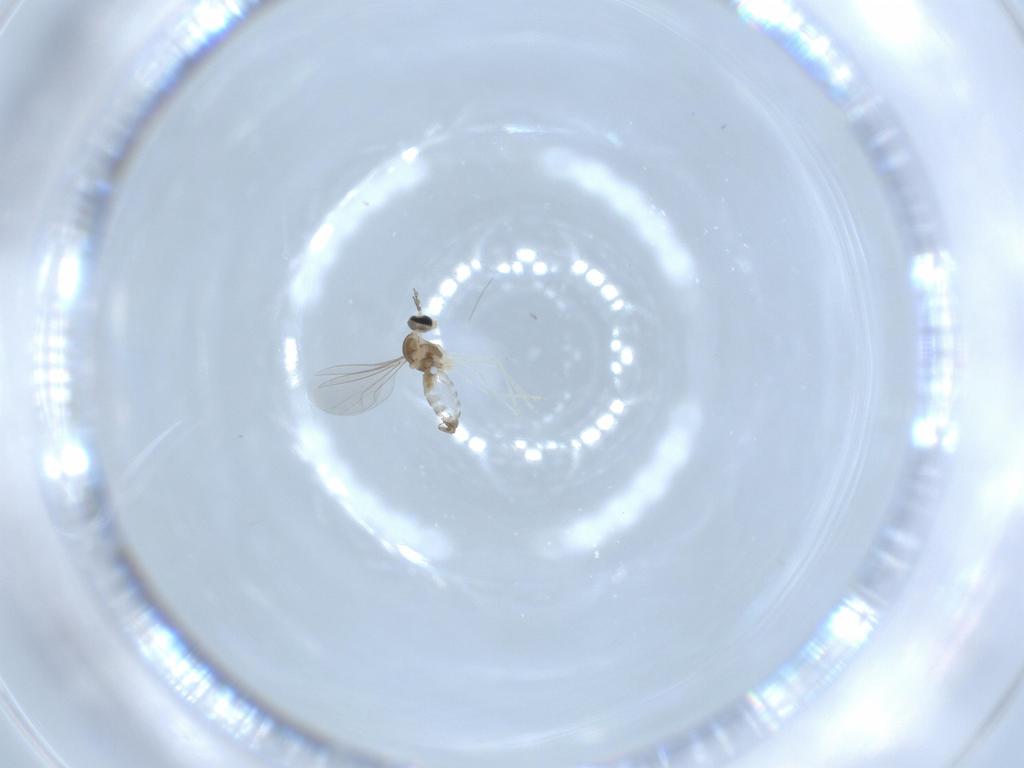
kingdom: Animalia
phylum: Arthropoda
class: Insecta
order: Diptera
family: Cecidomyiidae
